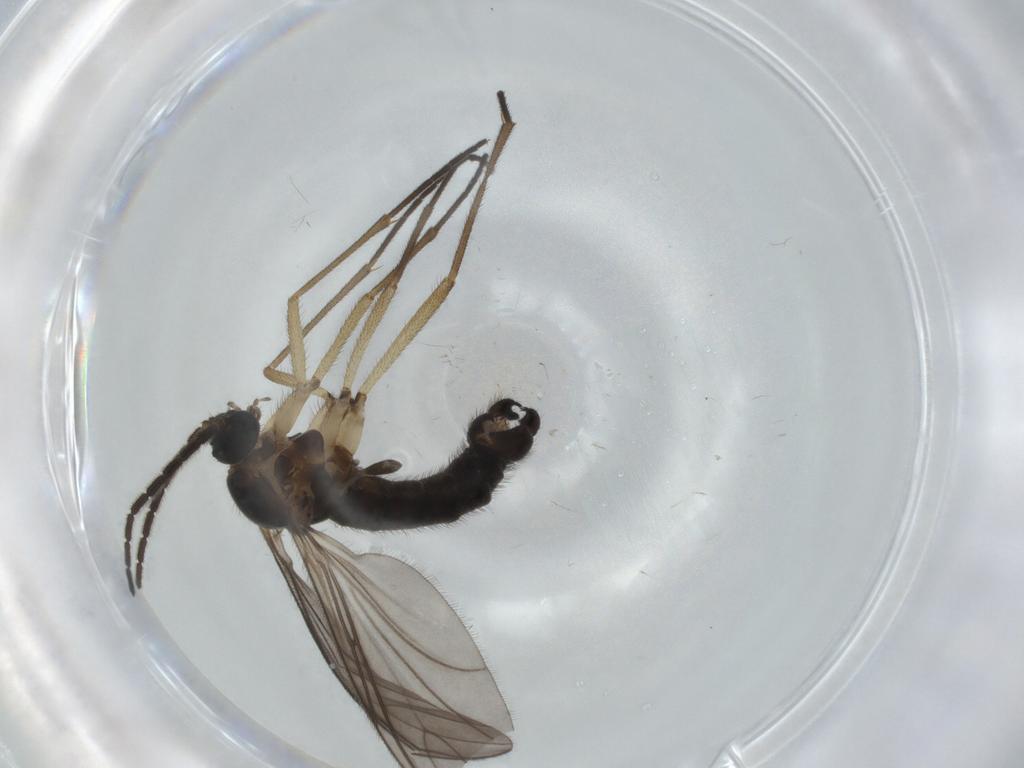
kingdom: Animalia
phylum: Arthropoda
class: Insecta
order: Diptera
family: Sciaridae
